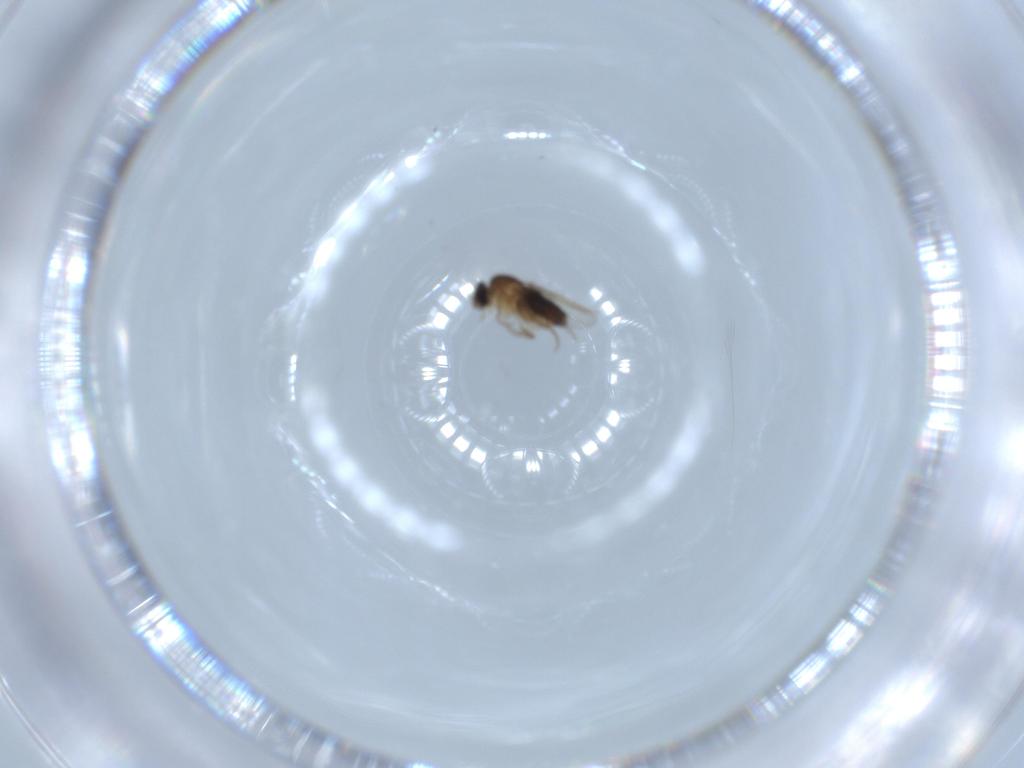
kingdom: Animalia
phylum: Arthropoda
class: Insecta
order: Diptera
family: Phoridae
